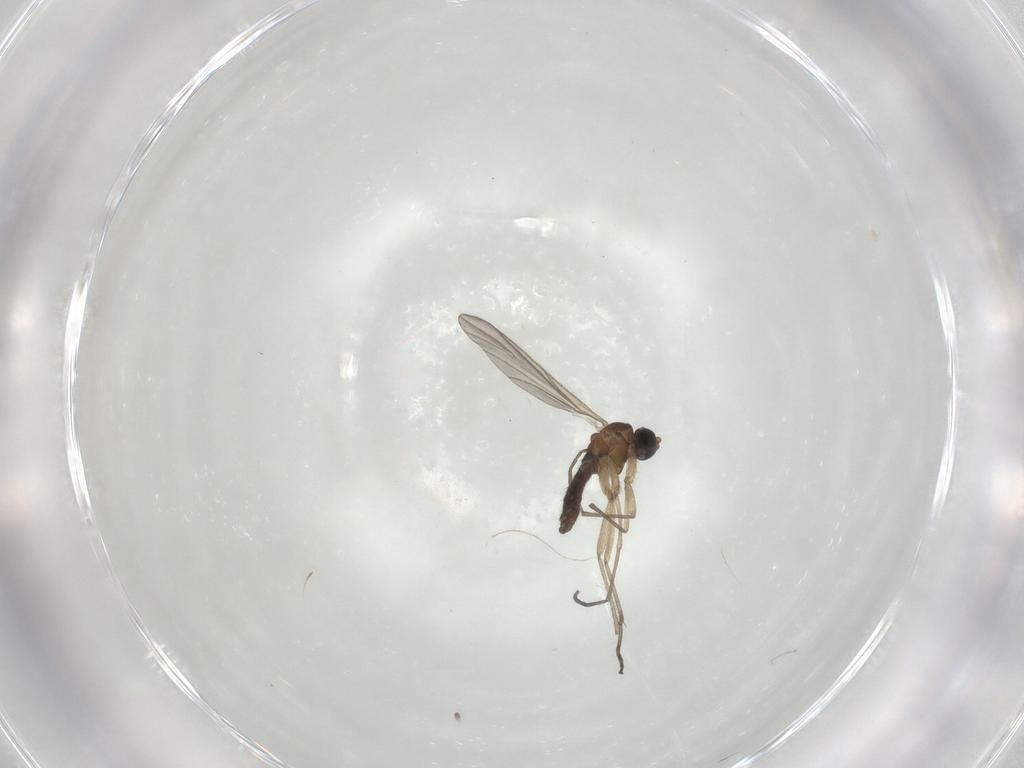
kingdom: Animalia
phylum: Arthropoda
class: Insecta
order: Diptera
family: Sciaridae
